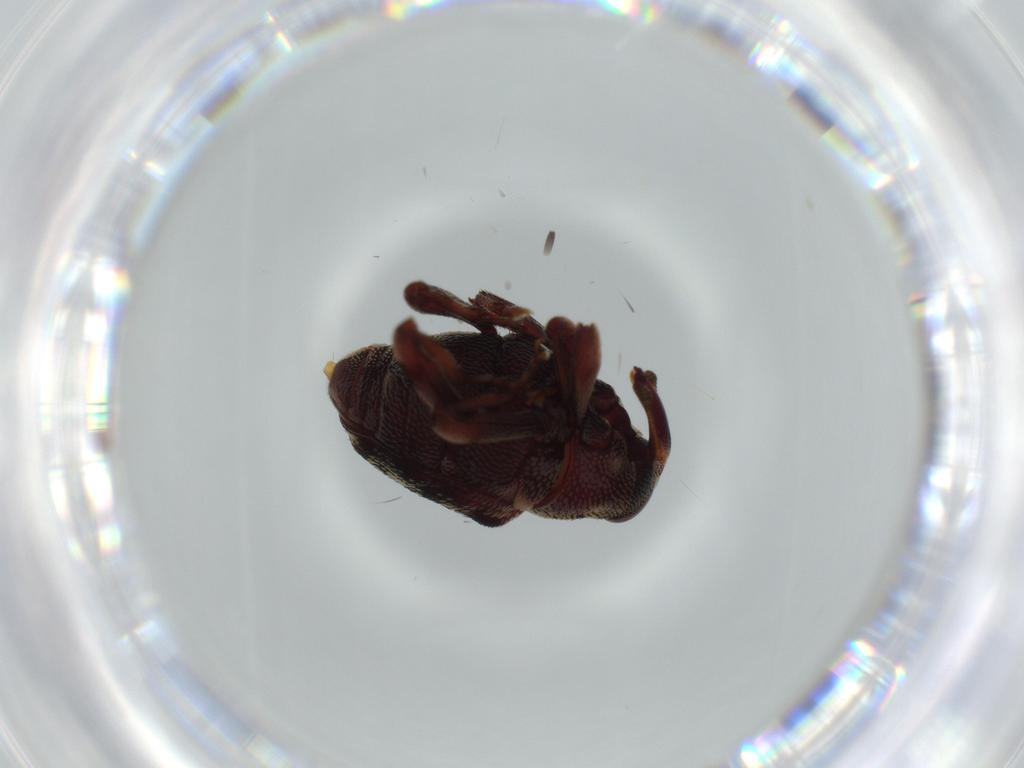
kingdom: Animalia
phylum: Arthropoda
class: Insecta
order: Coleoptera
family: Curculionidae
